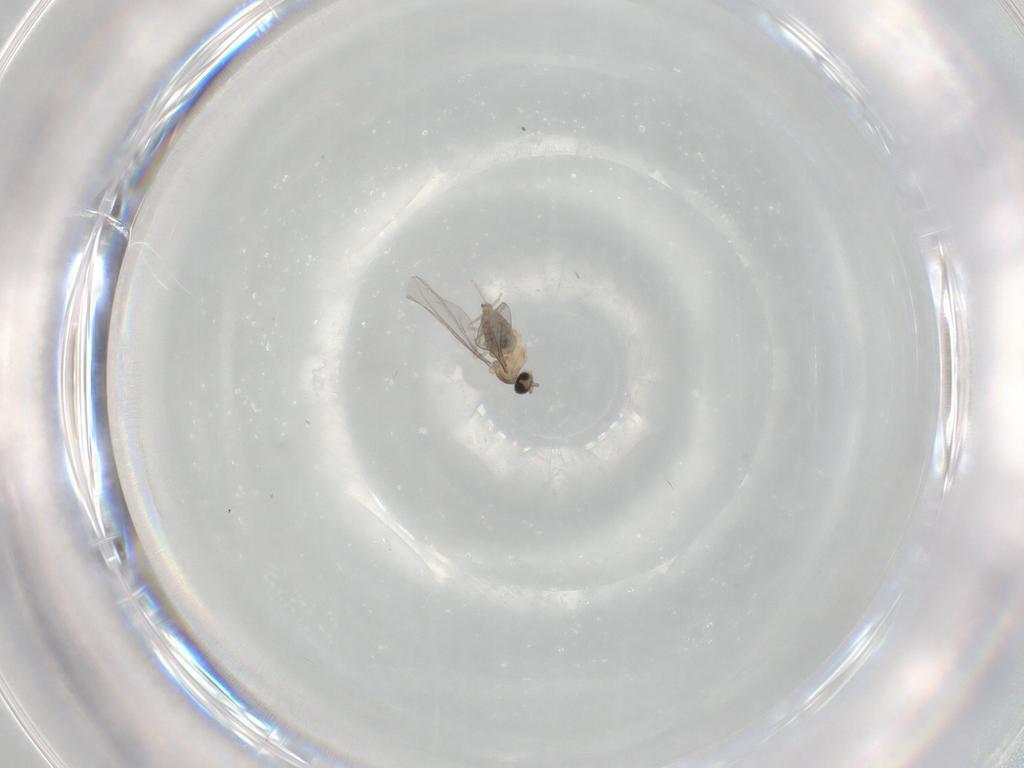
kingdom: Animalia
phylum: Arthropoda
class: Insecta
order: Diptera
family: Cecidomyiidae
